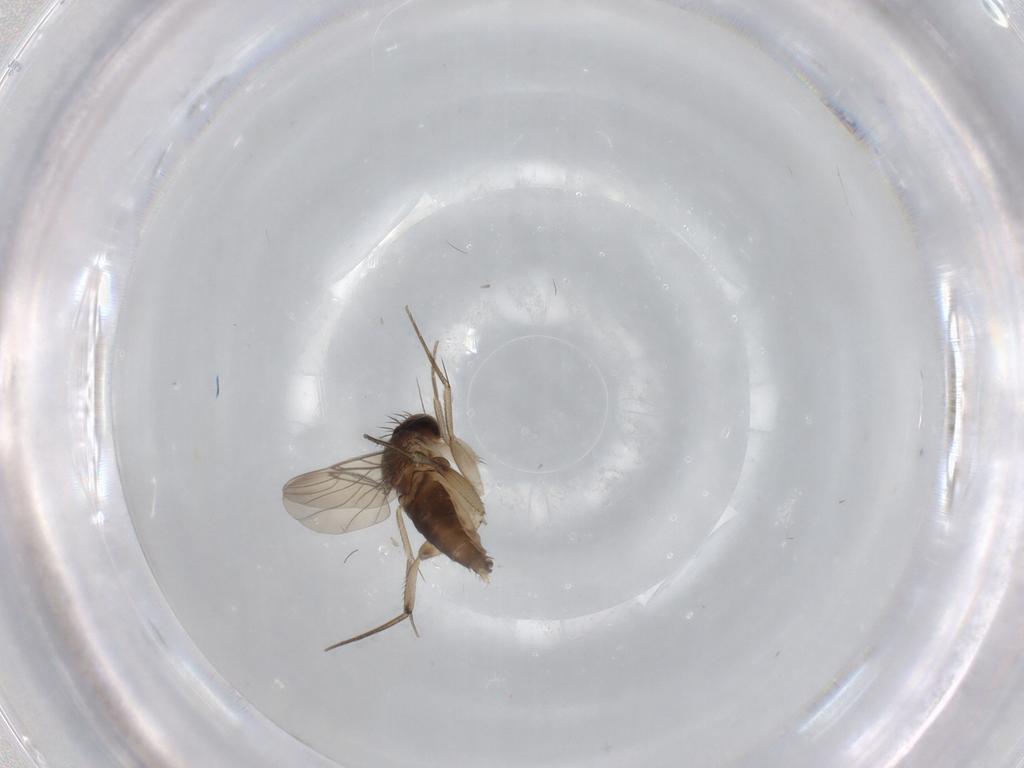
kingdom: Animalia
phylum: Arthropoda
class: Insecta
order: Diptera
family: Phoridae
